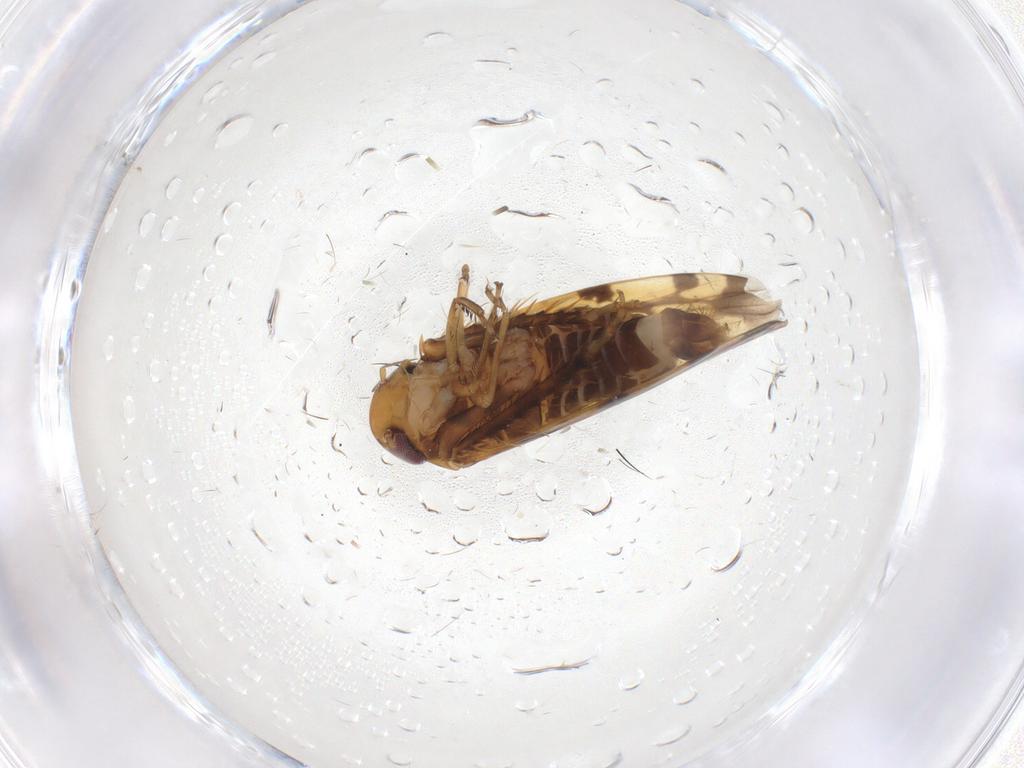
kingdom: Animalia
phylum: Arthropoda
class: Insecta
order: Hemiptera
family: Cicadellidae
